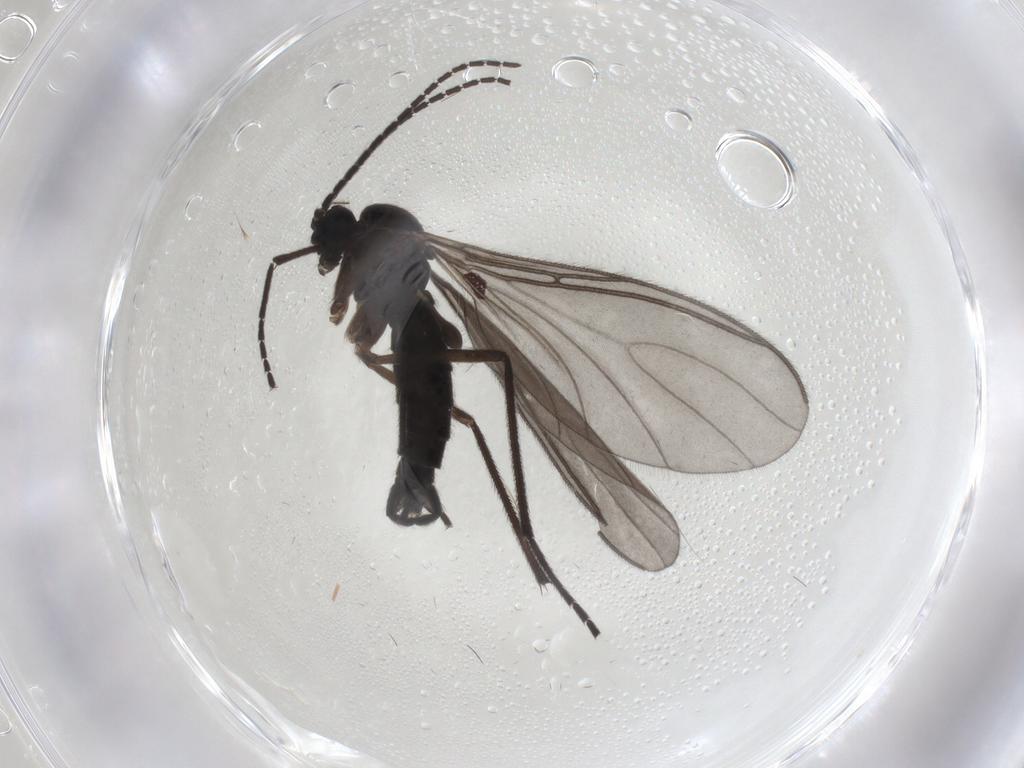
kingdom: Animalia
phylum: Arthropoda
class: Insecta
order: Diptera
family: Sciaridae
